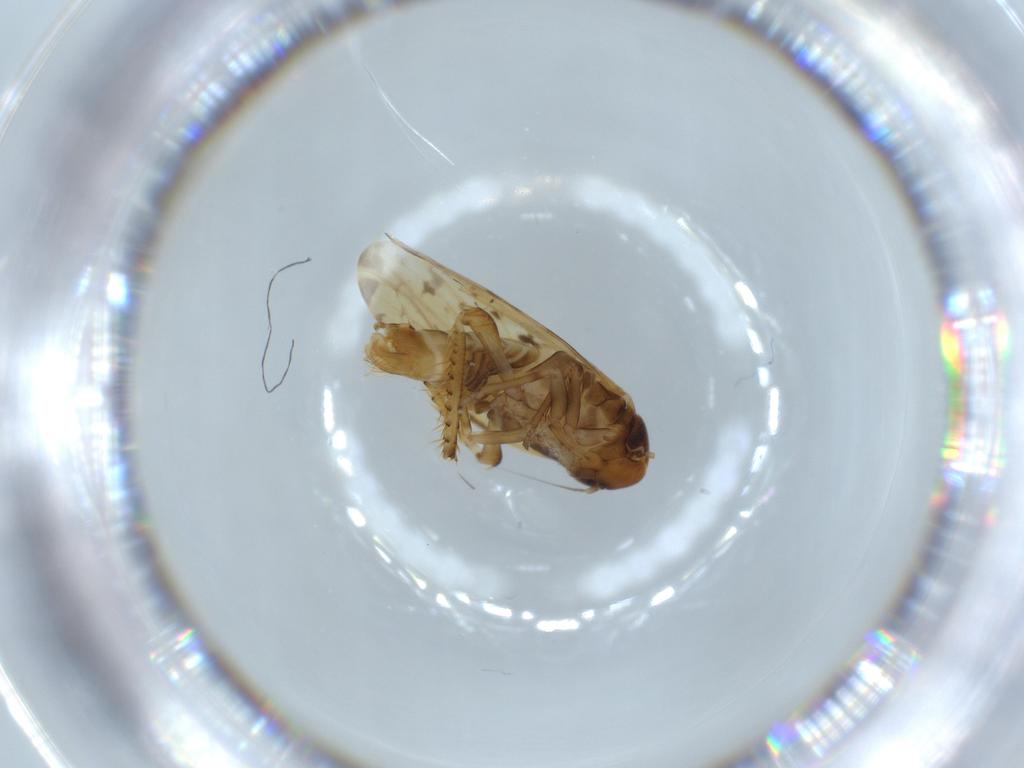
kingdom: Animalia
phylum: Arthropoda
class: Insecta
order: Hemiptera
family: Cicadellidae
